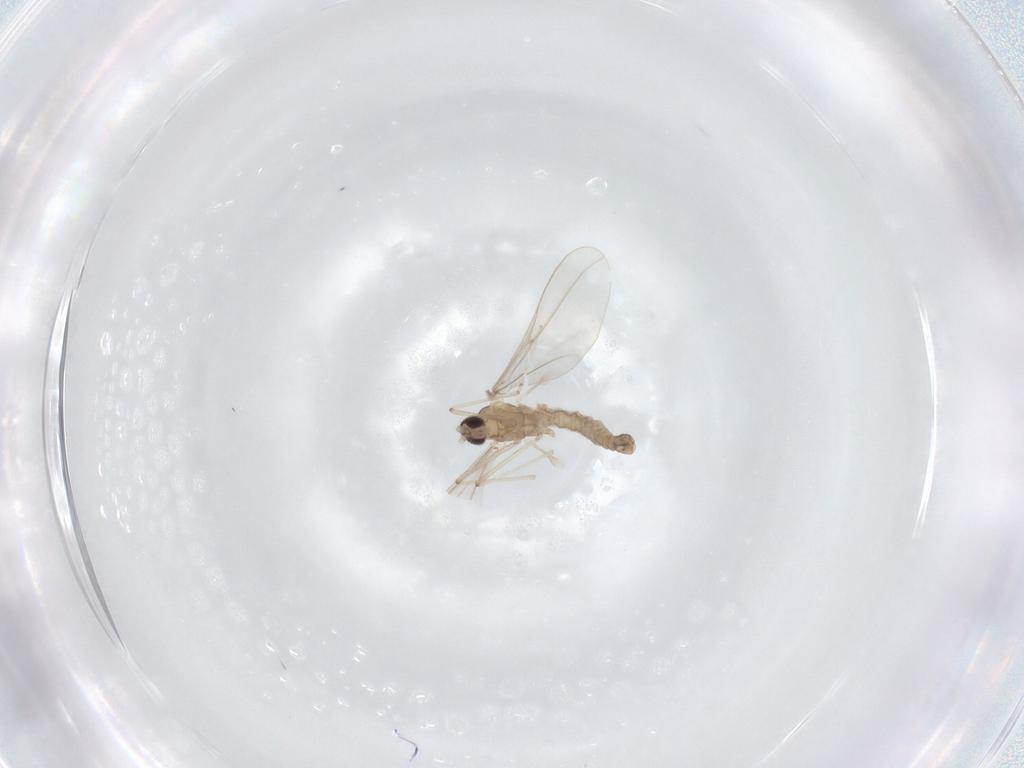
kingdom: Animalia
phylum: Arthropoda
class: Insecta
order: Diptera
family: Cecidomyiidae
